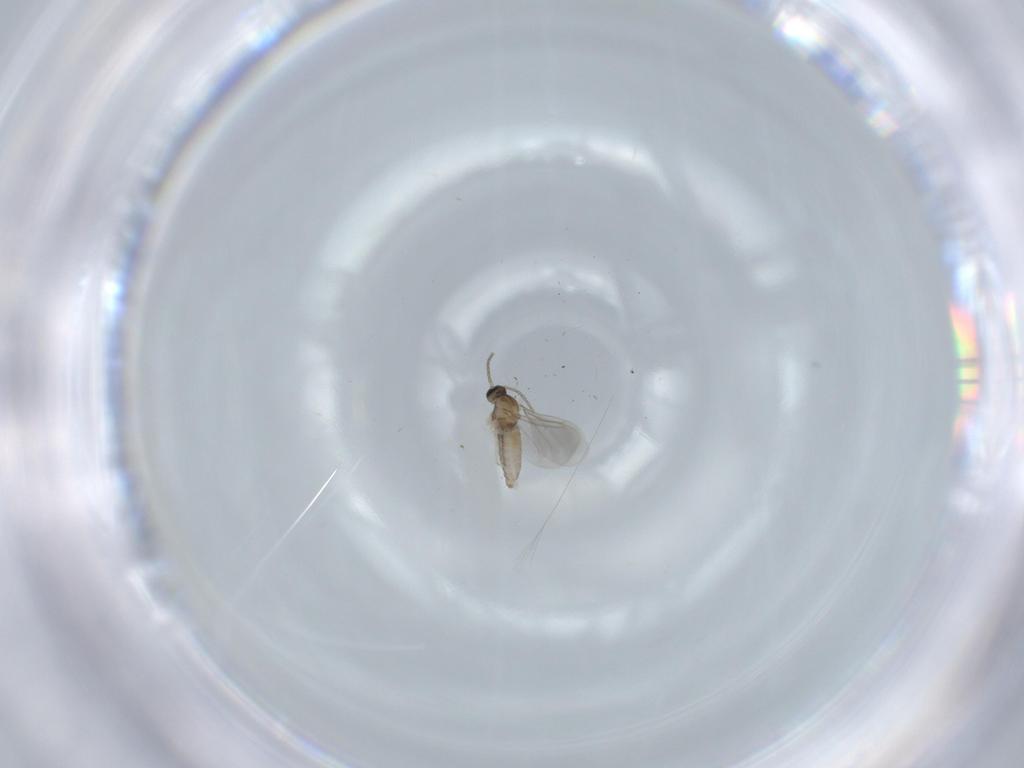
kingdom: Animalia
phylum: Arthropoda
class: Insecta
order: Diptera
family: Cecidomyiidae
